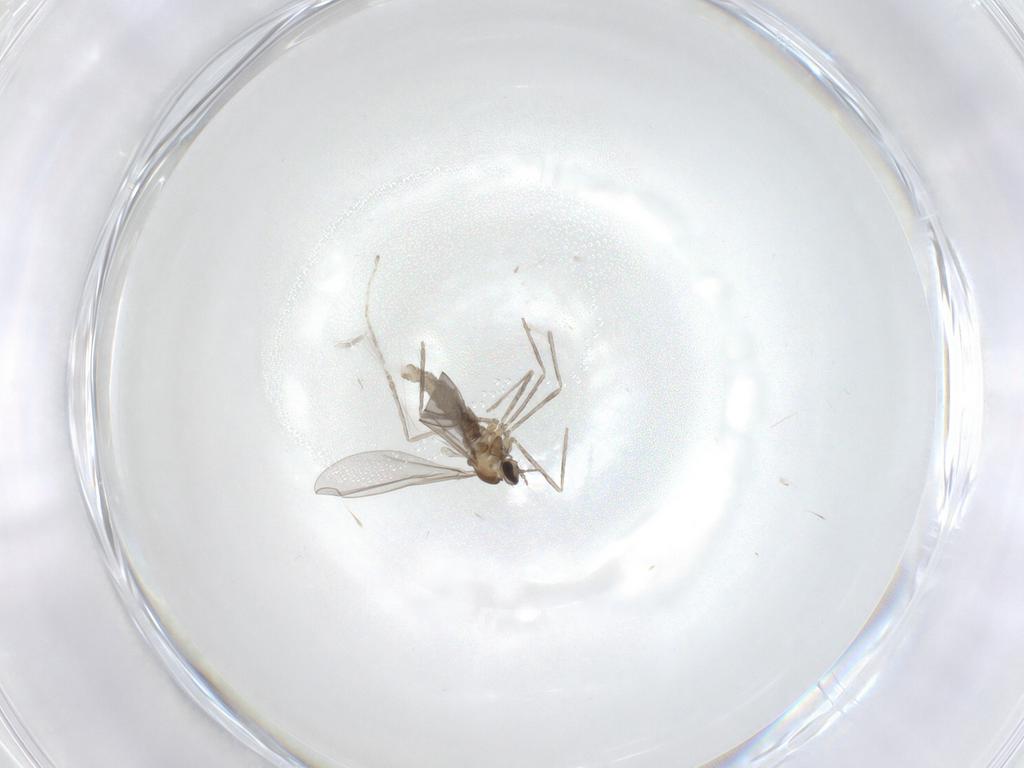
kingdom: Animalia
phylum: Arthropoda
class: Insecta
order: Diptera
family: Cecidomyiidae
